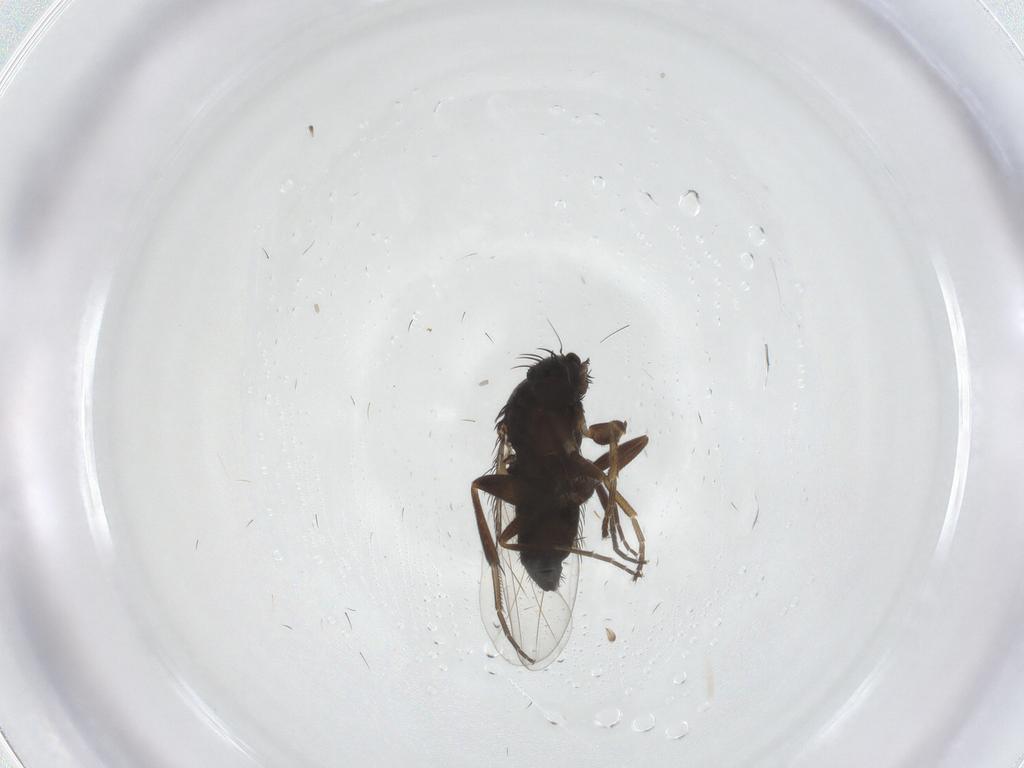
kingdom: Animalia
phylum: Arthropoda
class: Insecta
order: Diptera
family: Phoridae
